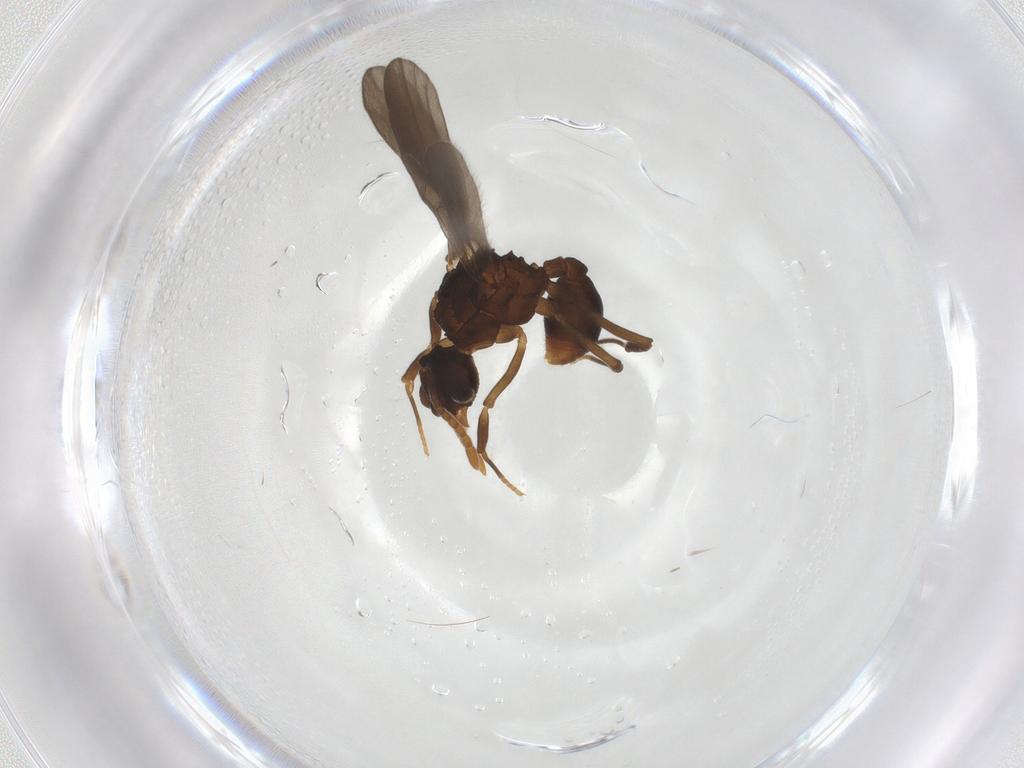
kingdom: Animalia
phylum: Arthropoda
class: Insecta
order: Hymenoptera
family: Formicidae
